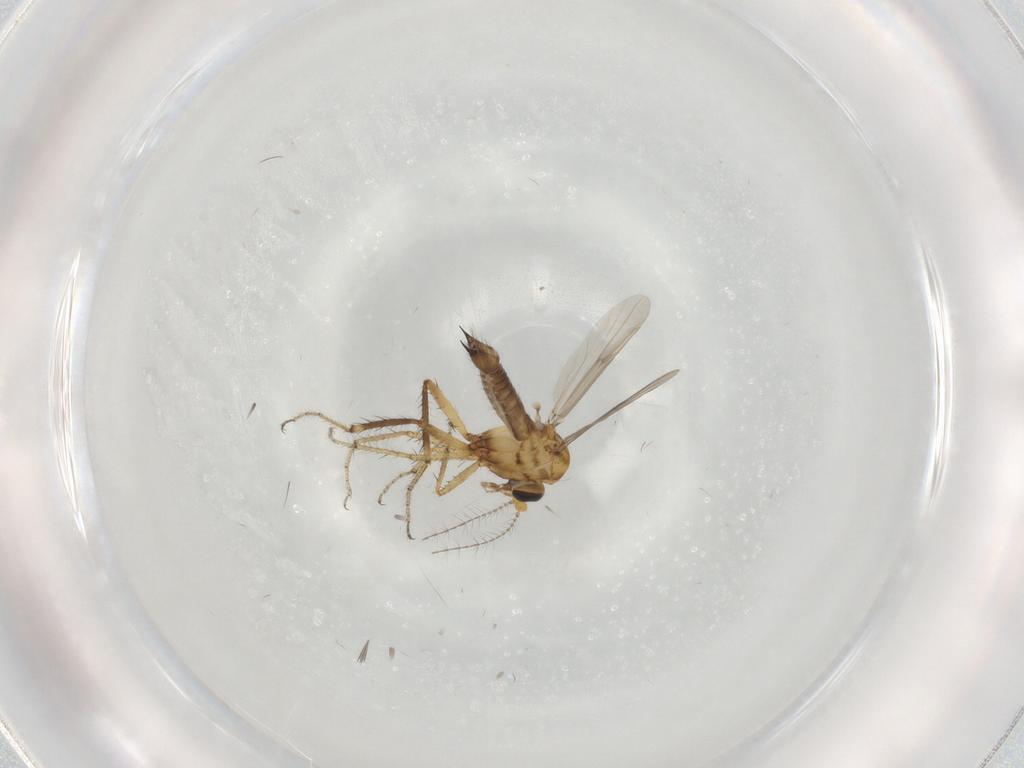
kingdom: Animalia
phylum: Arthropoda
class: Insecta
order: Diptera
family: Ceratopogonidae
